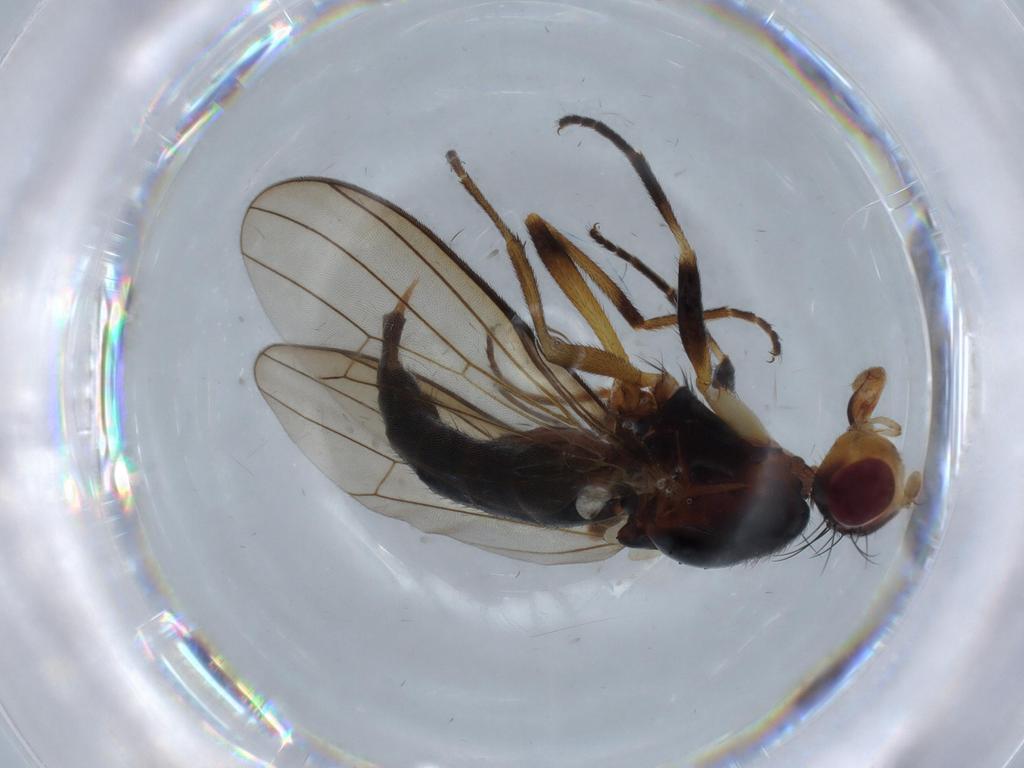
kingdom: Animalia
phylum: Arthropoda
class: Insecta
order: Diptera
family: Piophilidae
